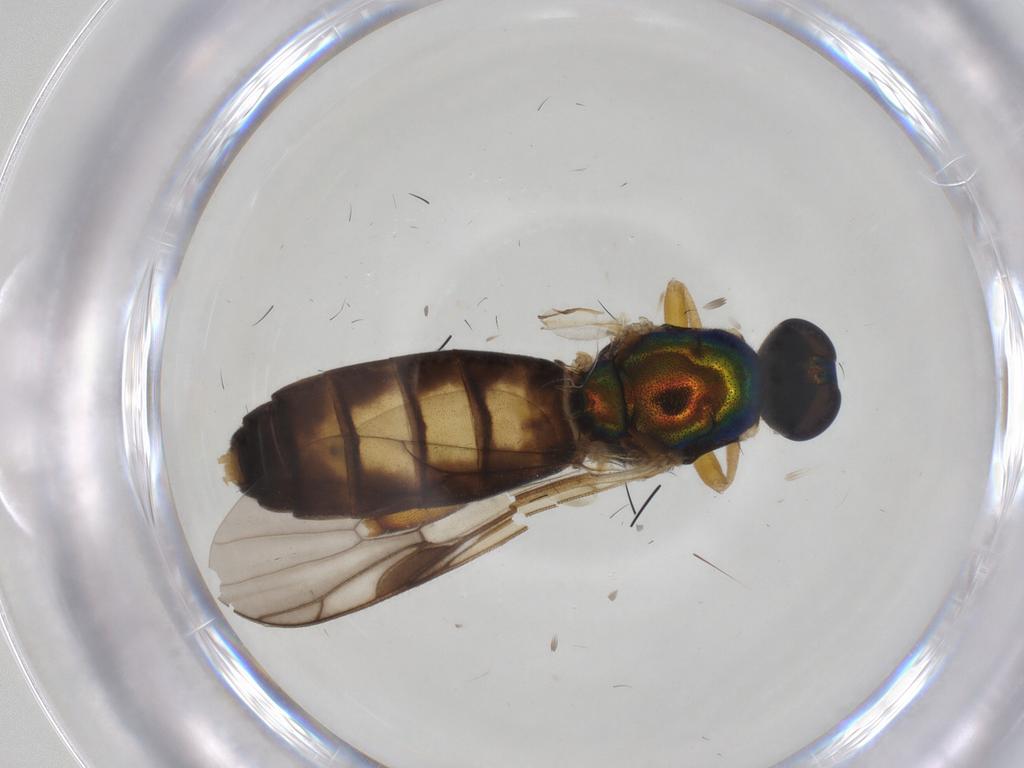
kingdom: Animalia
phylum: Arthropoda
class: Insecta
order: Diptera
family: Stratiomyidae
